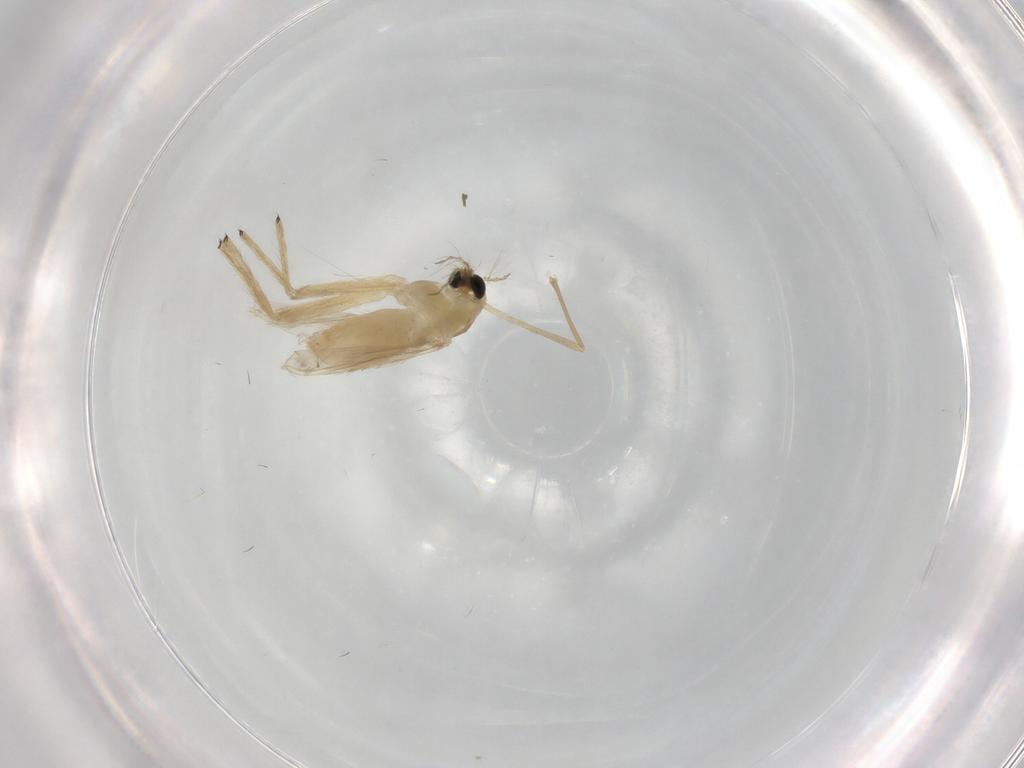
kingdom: Animalia
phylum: Arthropoda
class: Insecta
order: Diptera
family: Chironomidae
